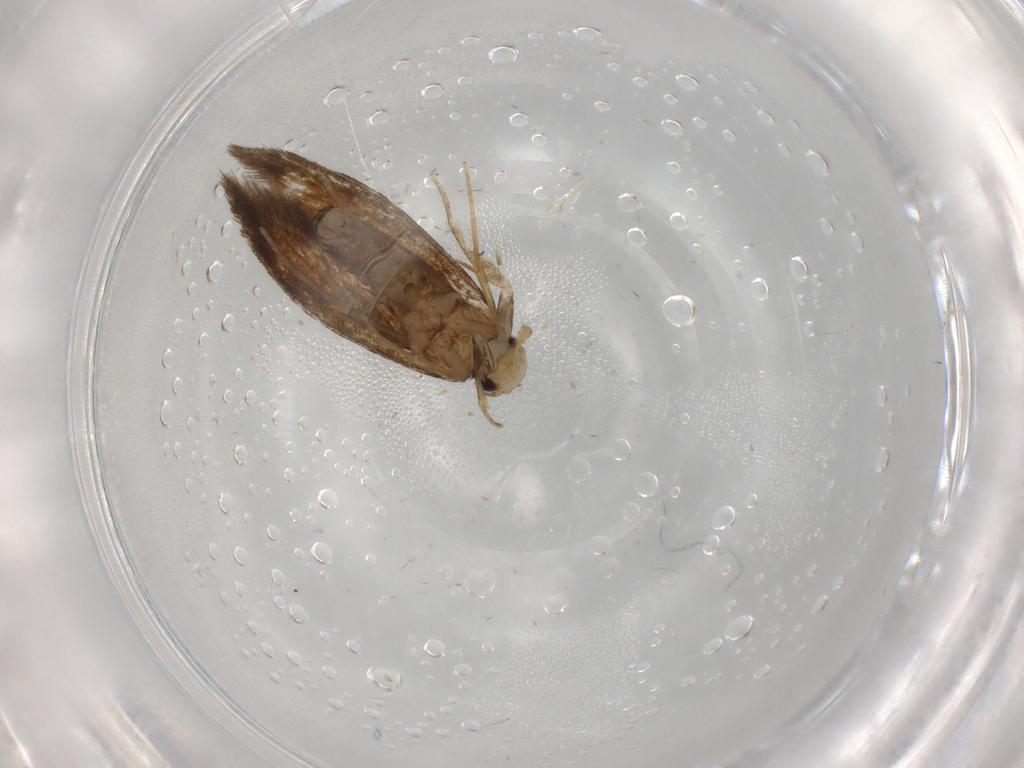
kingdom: Animalia
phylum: Arthropoda
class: Insecta
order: Lepidoptera
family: Tineidae
